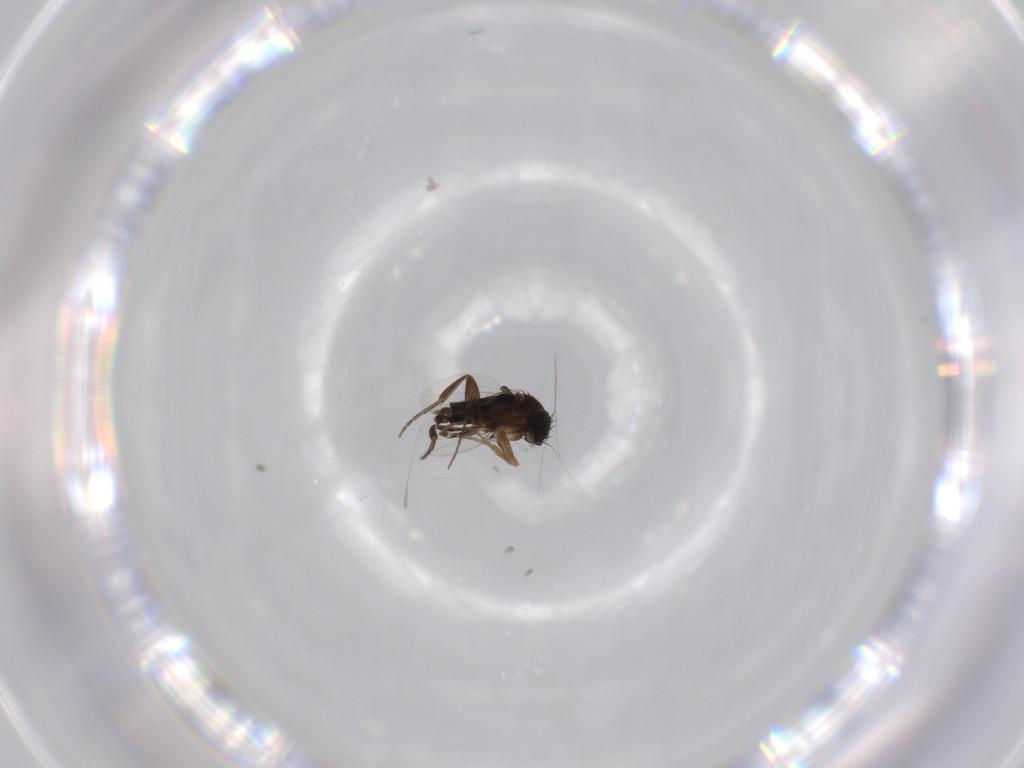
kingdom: Animalia
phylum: Arthropoda
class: Insecta
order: Diptera
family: Phoridae
